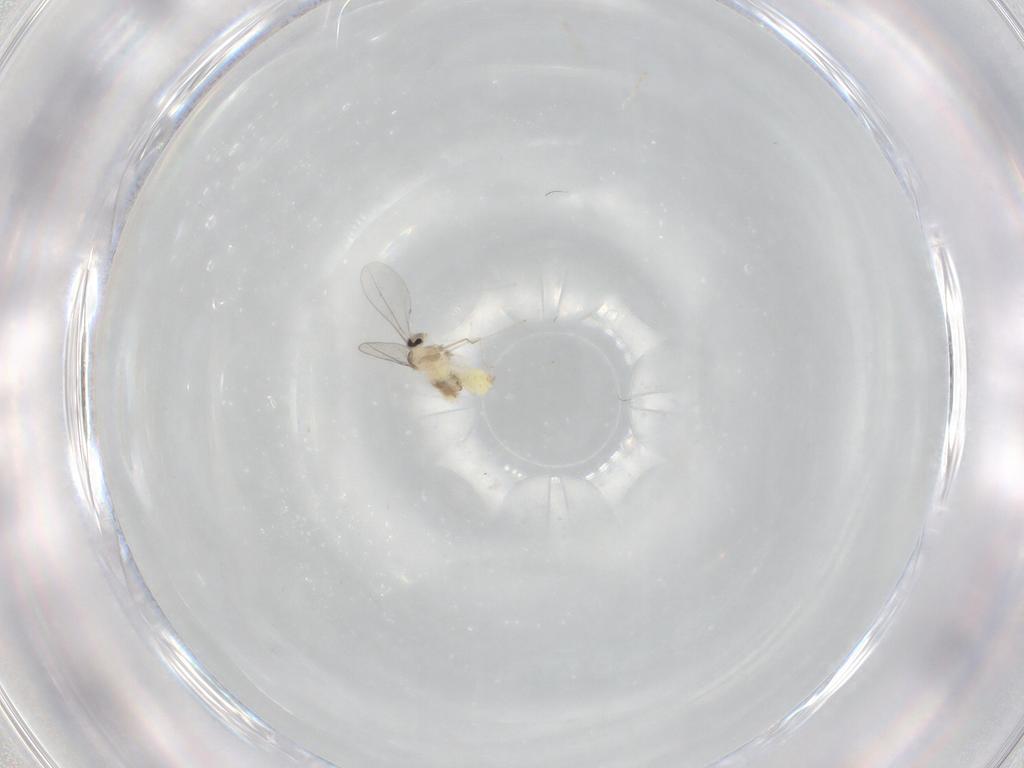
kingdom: Animalia
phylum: Arthropoda
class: Insecta
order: Diptera
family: Cecidomyiidae
